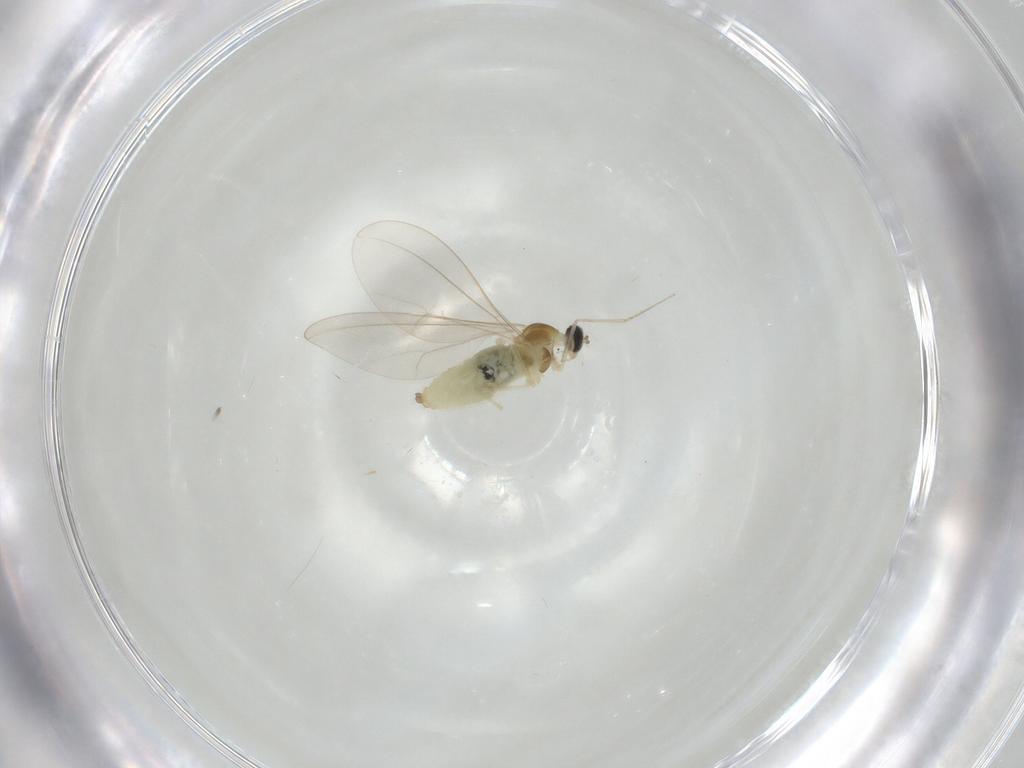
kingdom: Animalia
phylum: Arthropoda
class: Insecta
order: Diptera
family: Cecidomyiidae
